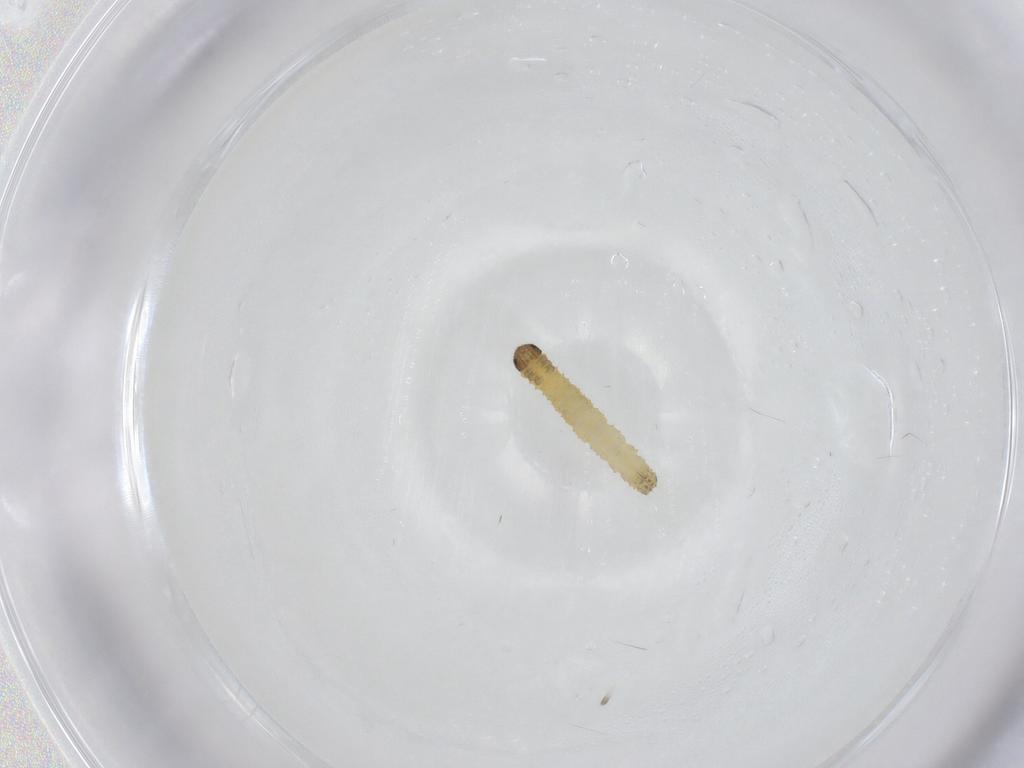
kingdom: Animalia
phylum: Arthropoda
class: Insecta
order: Lepidoptera
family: Geometridae
